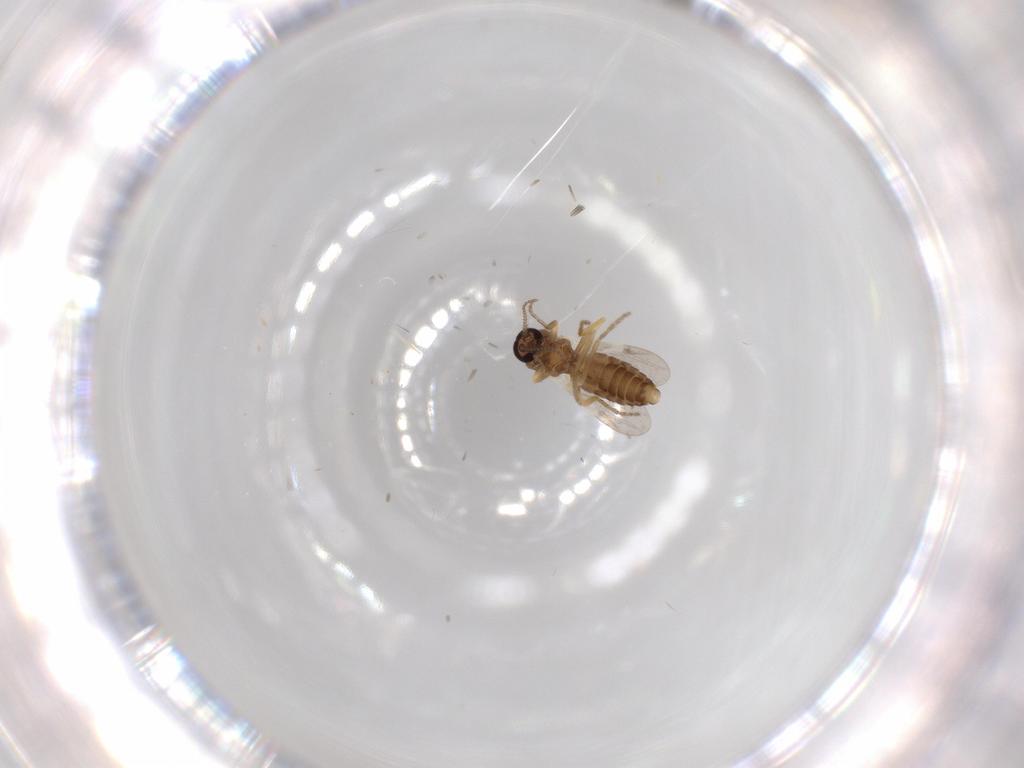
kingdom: Animalia
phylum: Arthropoda
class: Insecta
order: Diptera
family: Ceratopogonidae
